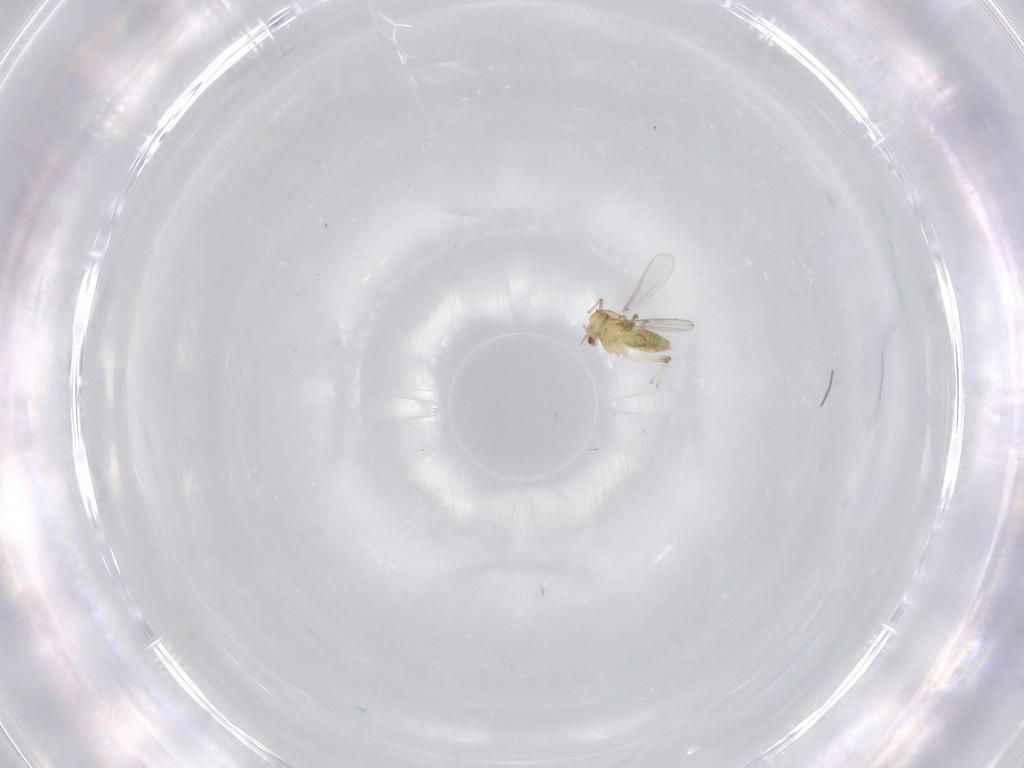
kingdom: Animalia
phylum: Arthropoda
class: Insecta
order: Diptera
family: Chironomidae
